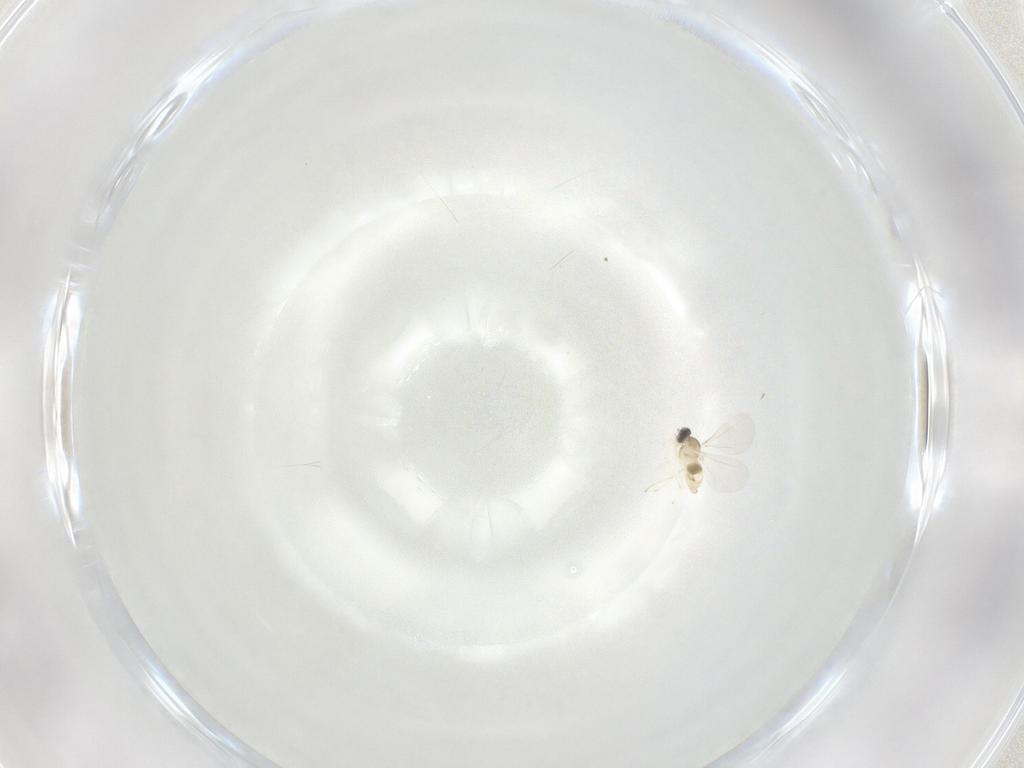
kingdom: Animalia
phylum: Arthropoda
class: Insecta
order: Diptera
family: Cecidomyiidae
